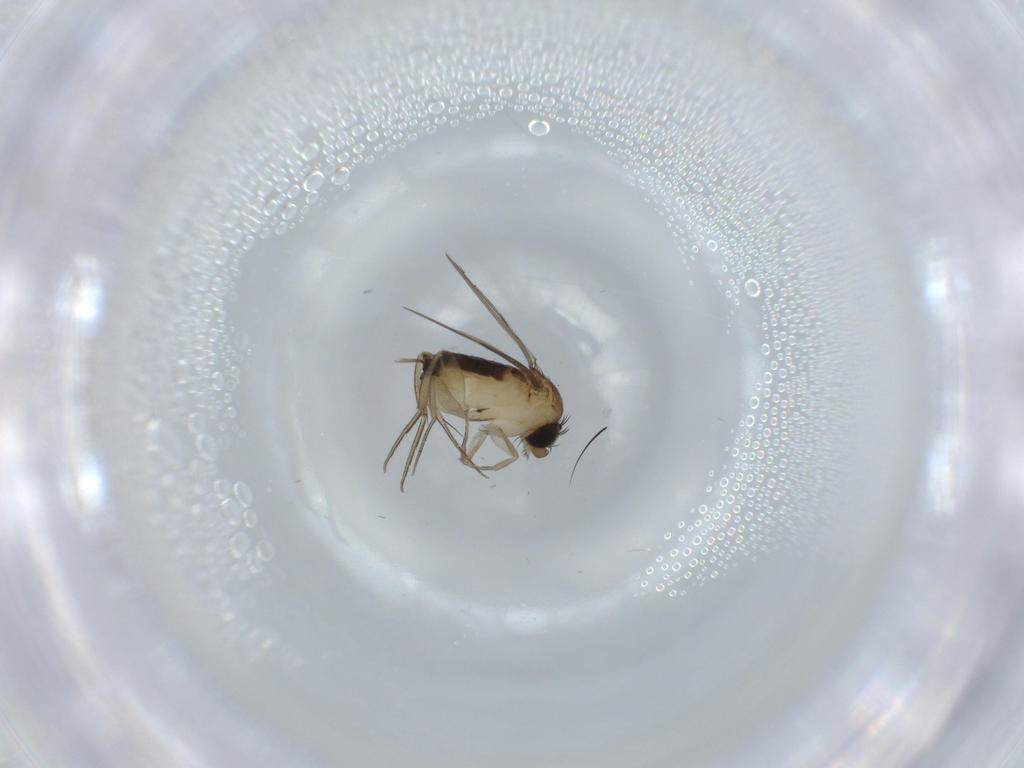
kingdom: Animalia
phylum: Arthropoda
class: Insecta
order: Diptera
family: Phoridae
